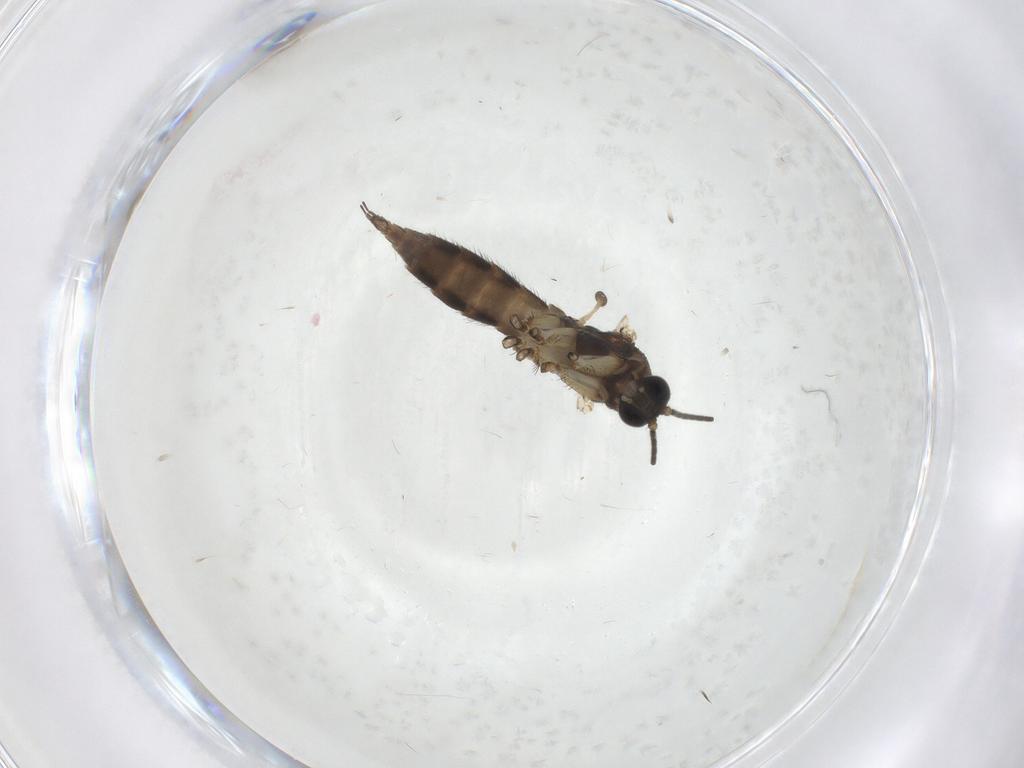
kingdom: Animalia
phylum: Arthropoda
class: Insecta
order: Diptera
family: Sciaridae
